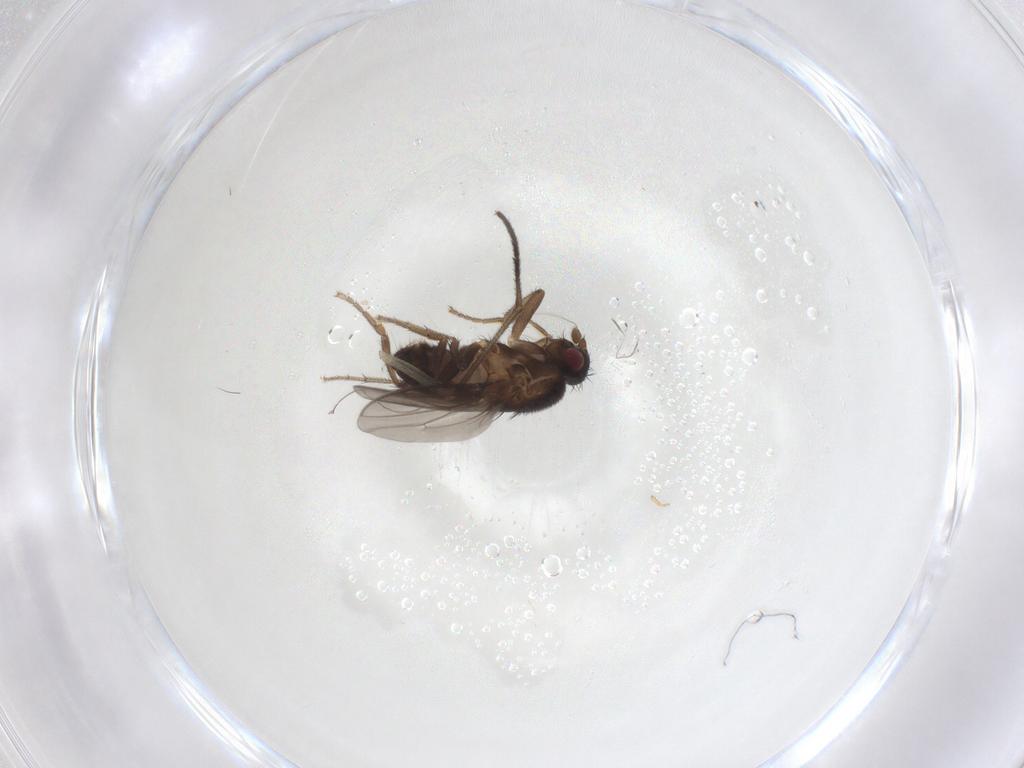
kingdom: Animalia
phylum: Arthropoda
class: Insecta
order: Diptera
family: Sphaeroceridae
